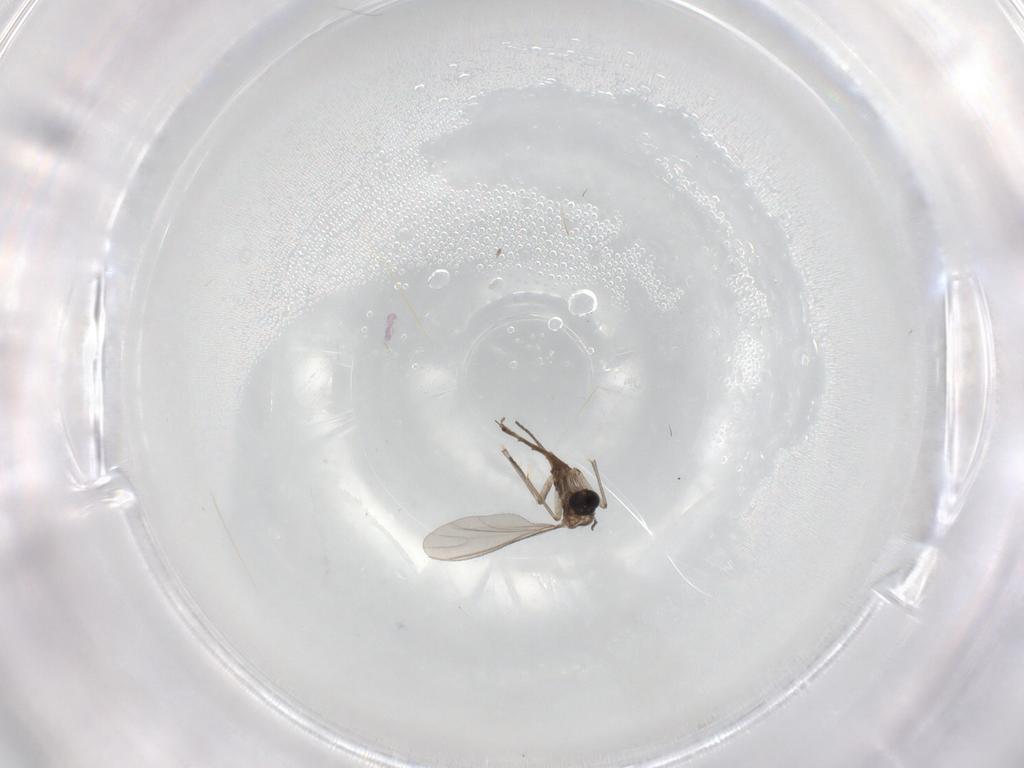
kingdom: Animalia
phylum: Arthropoda
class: Insecta
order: Diptera
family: Sciaridae
